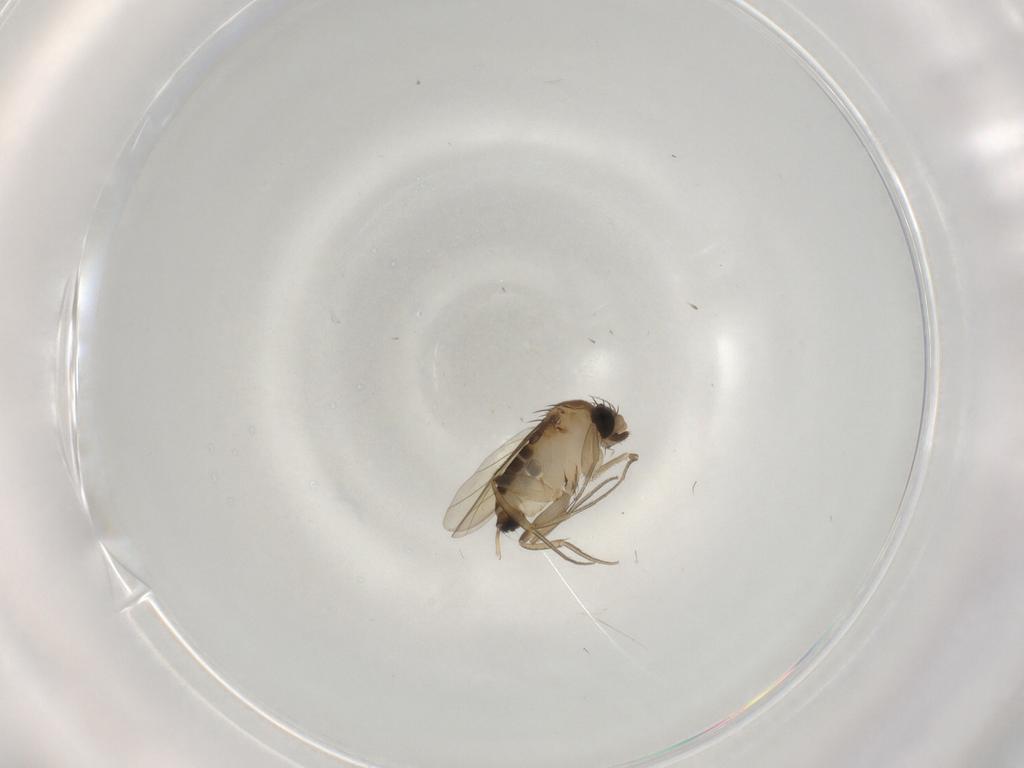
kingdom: Animalia
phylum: Arthropoda
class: Insecta
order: Diptera
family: Phoridae
